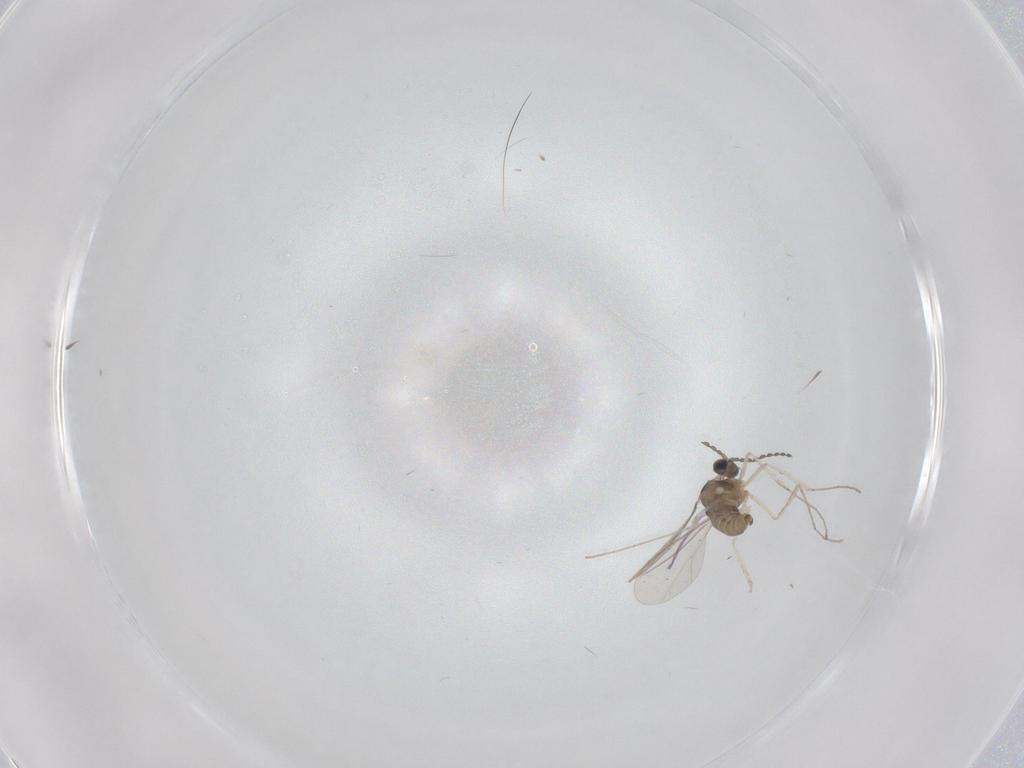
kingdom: Animalia
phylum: Arthropoda
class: Insecta
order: Diptera
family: Cecidomyiidae
